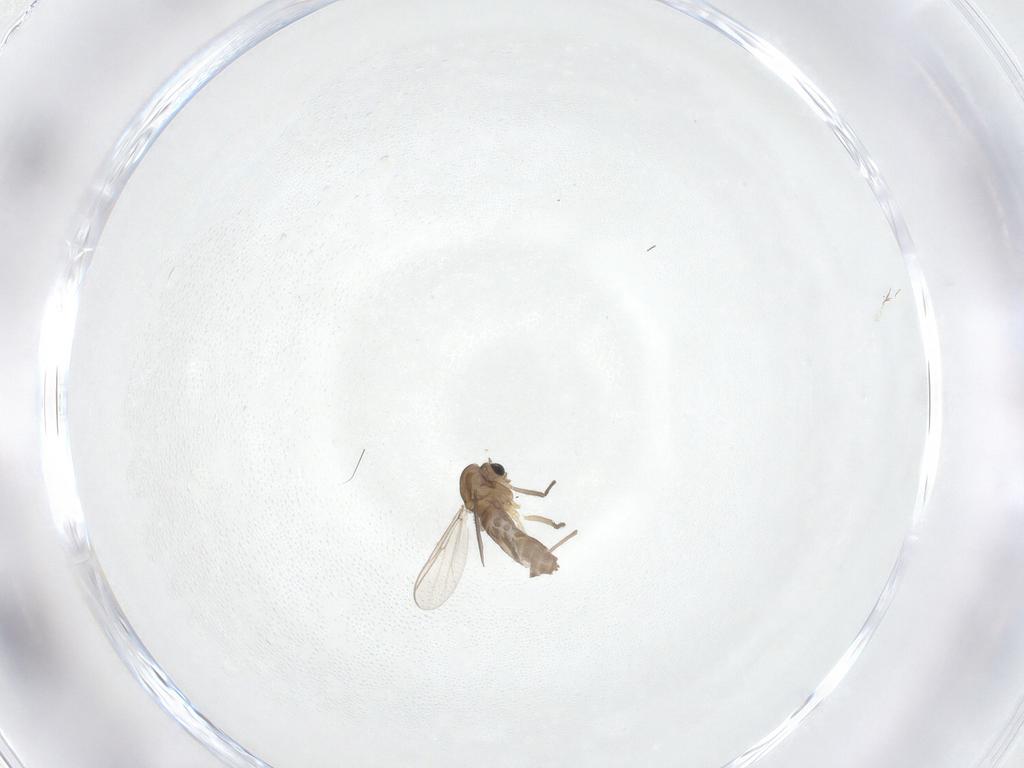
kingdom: Animalia
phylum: Arthropoda
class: Insecta
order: Diptera
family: Chironomidae
